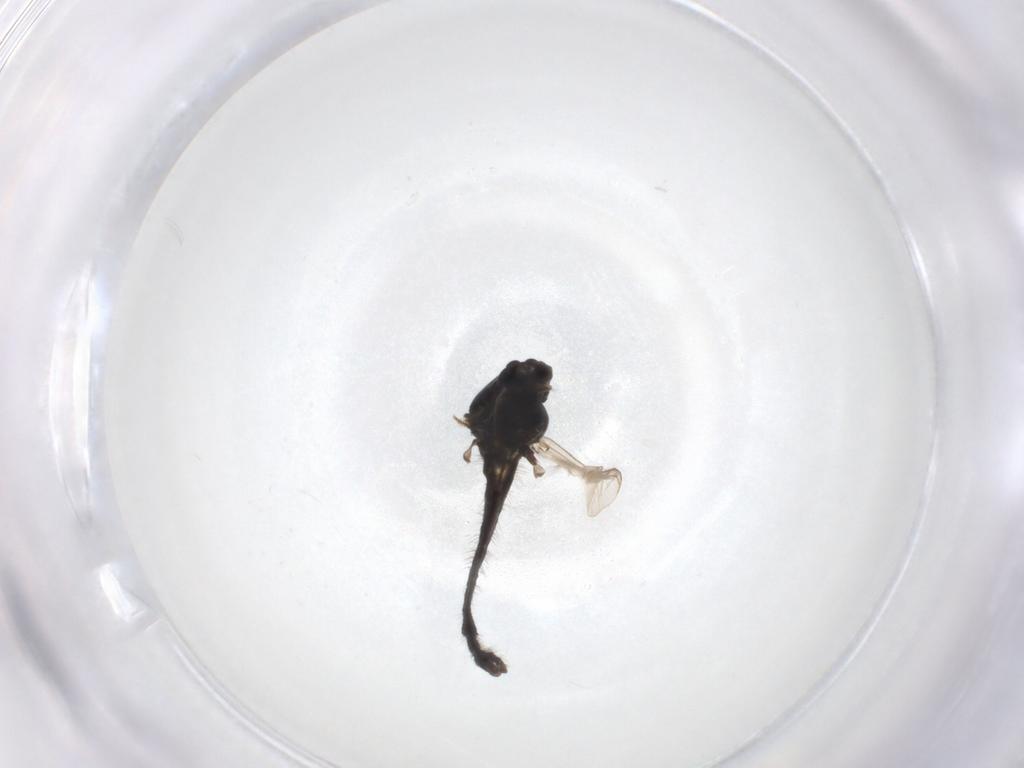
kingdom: Animalia
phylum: Arthropoda
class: Insecta
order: Diptera
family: Chironomidae
